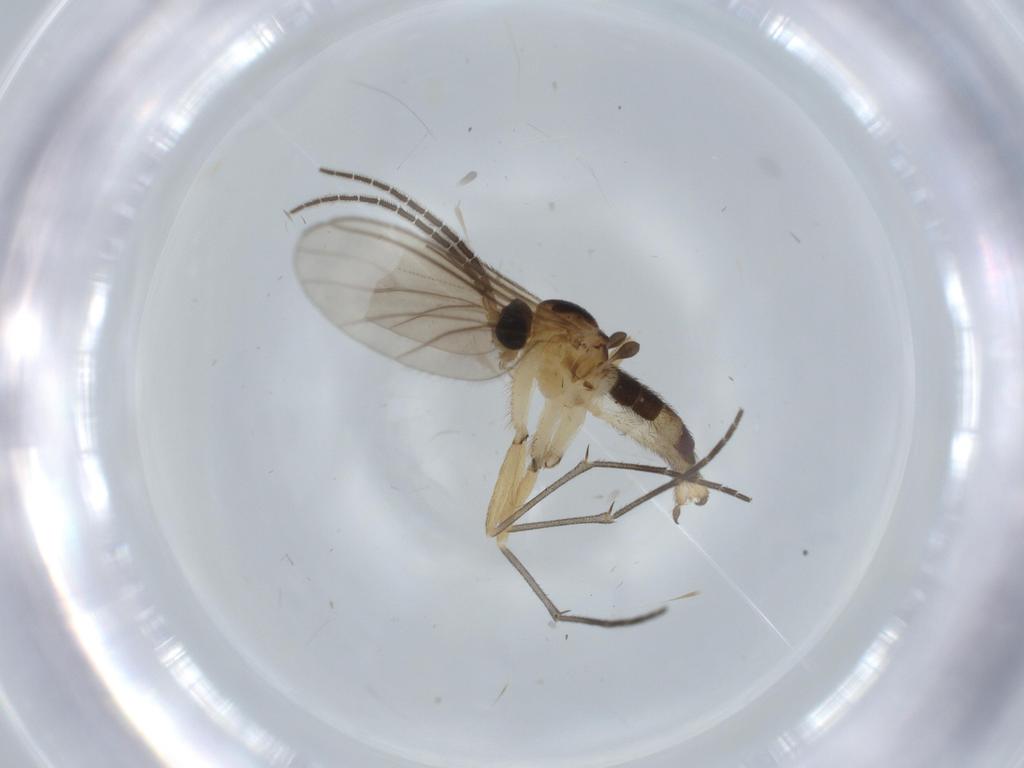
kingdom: Animalia
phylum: Arthropoda
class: Insecta
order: Diptera
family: Sciaridae
